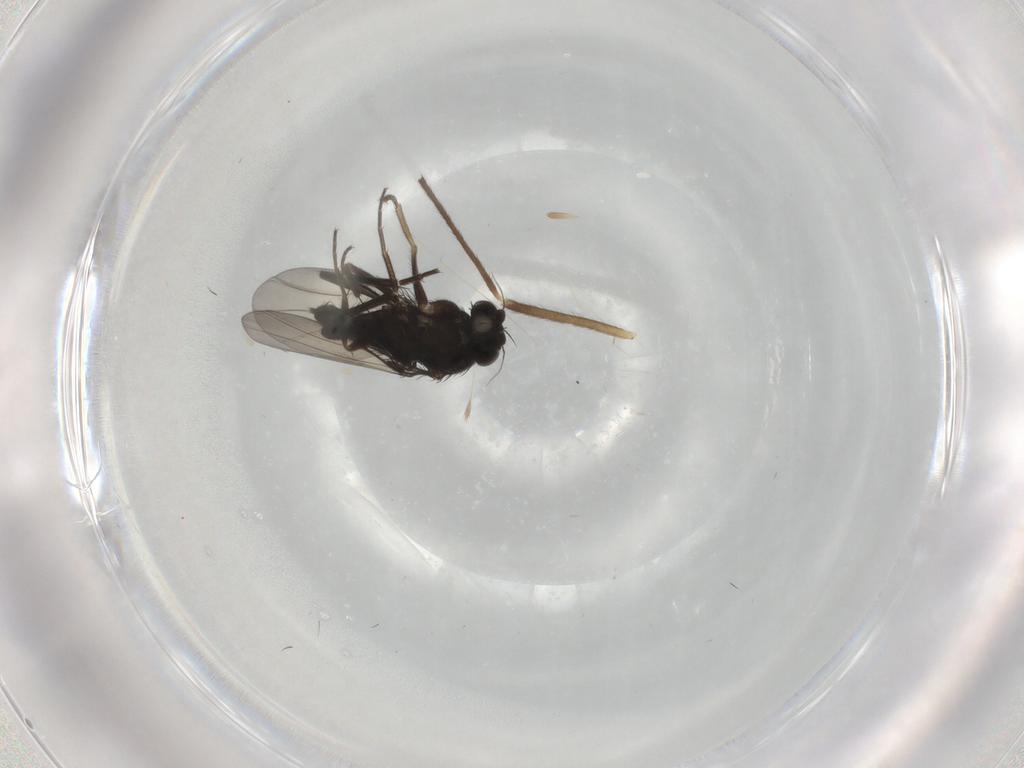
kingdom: Animalia
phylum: Arthropoda
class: Insecta
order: Diptera
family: Phoridae
